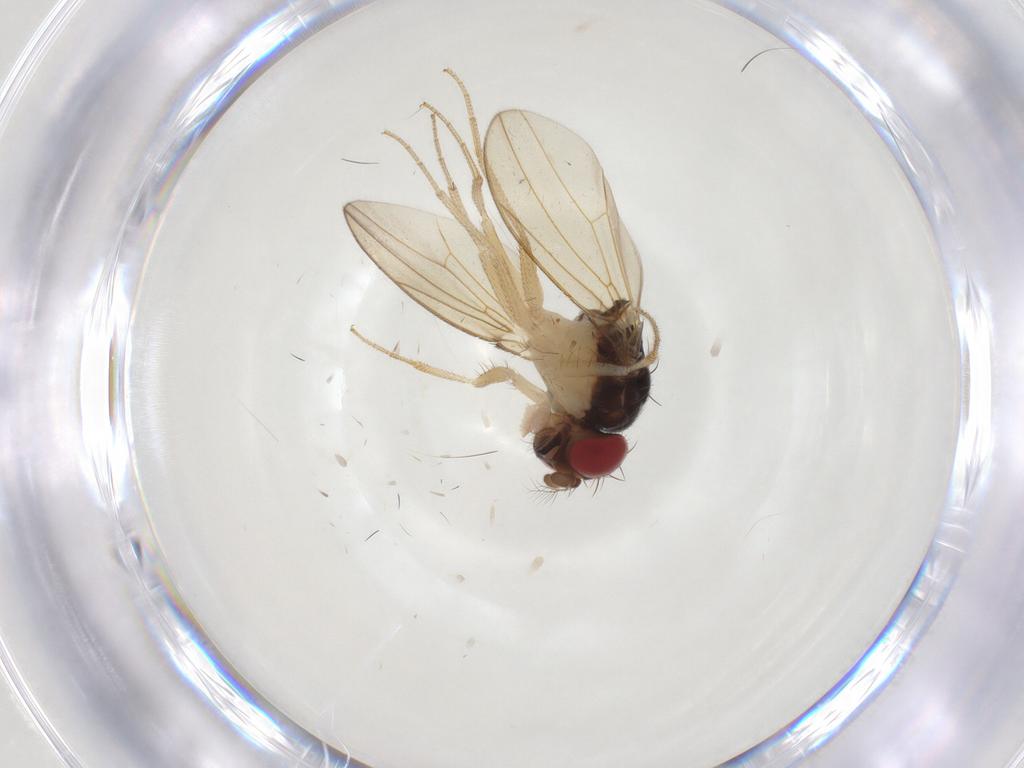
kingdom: Animalia
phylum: Arthropoda
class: Insecta
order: Diptera
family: Drosophilidae
